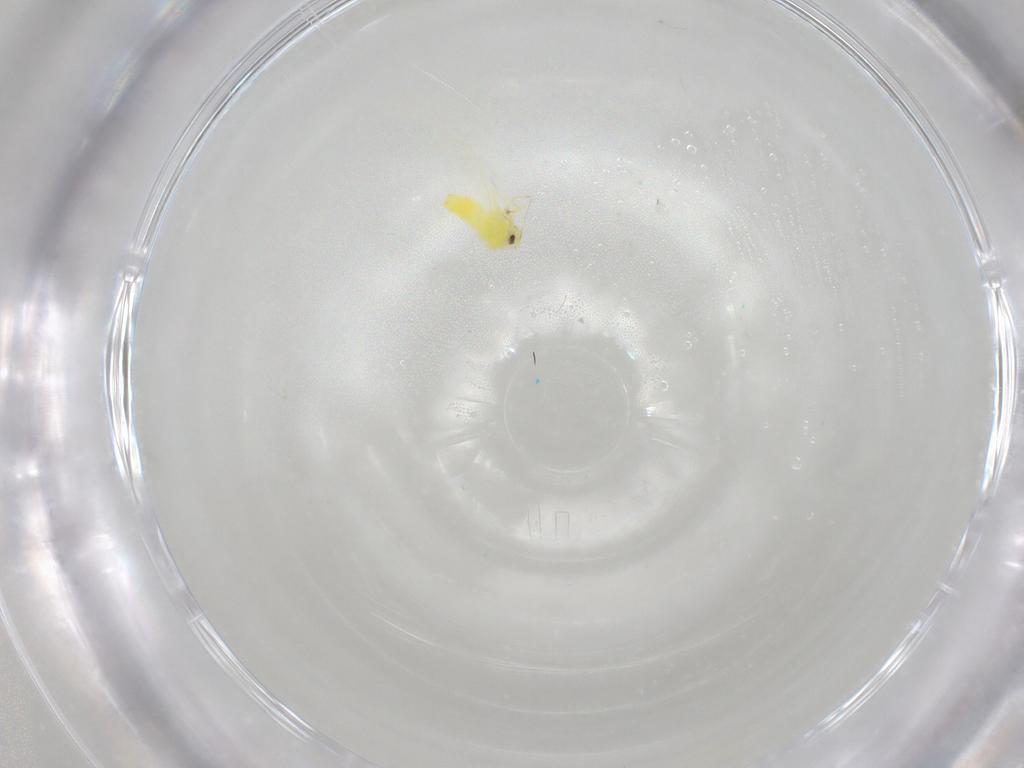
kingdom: Animalia
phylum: Arthropoda
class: Insecta
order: Hemiptera
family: Aleyrodidae
